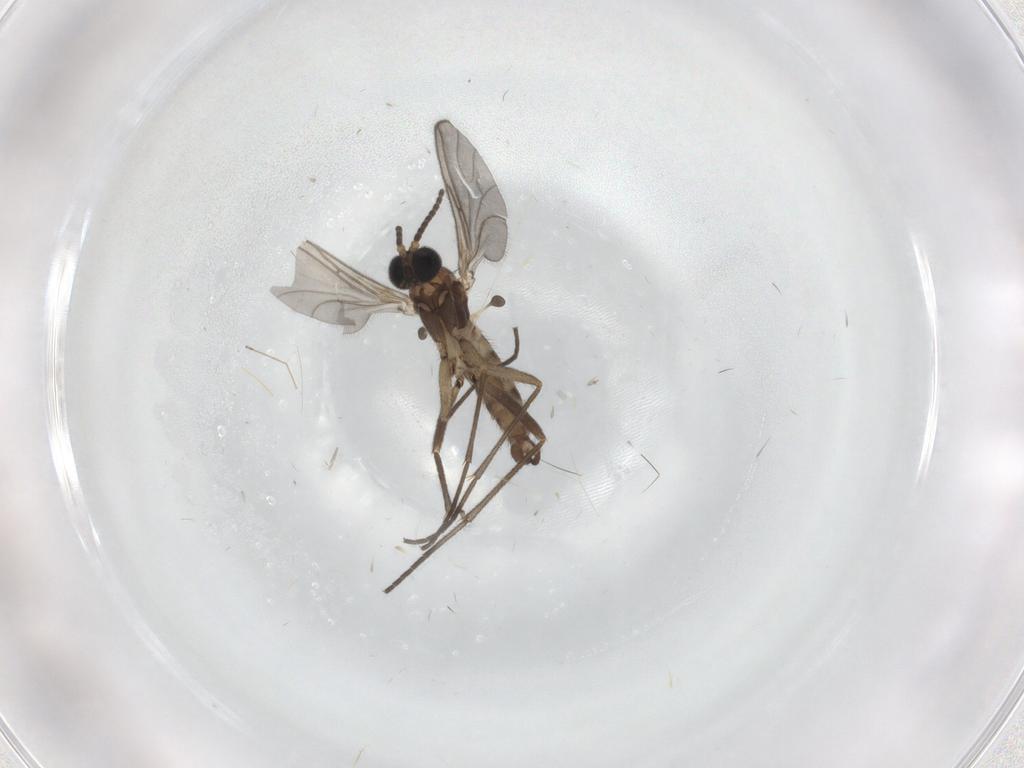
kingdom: Animalia
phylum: Arthropoda
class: Insecta
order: Diptera
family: Sciaridae
